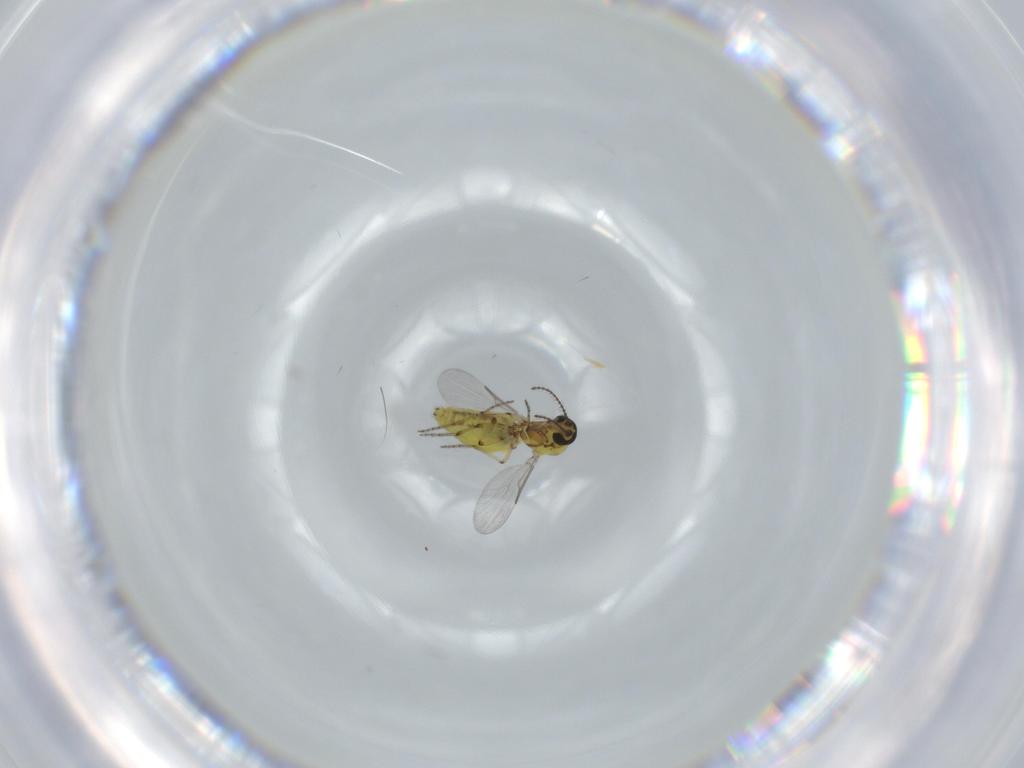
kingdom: Animalia
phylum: Arthropoda
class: Insecta
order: Diptera
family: Ceratopogonidae
